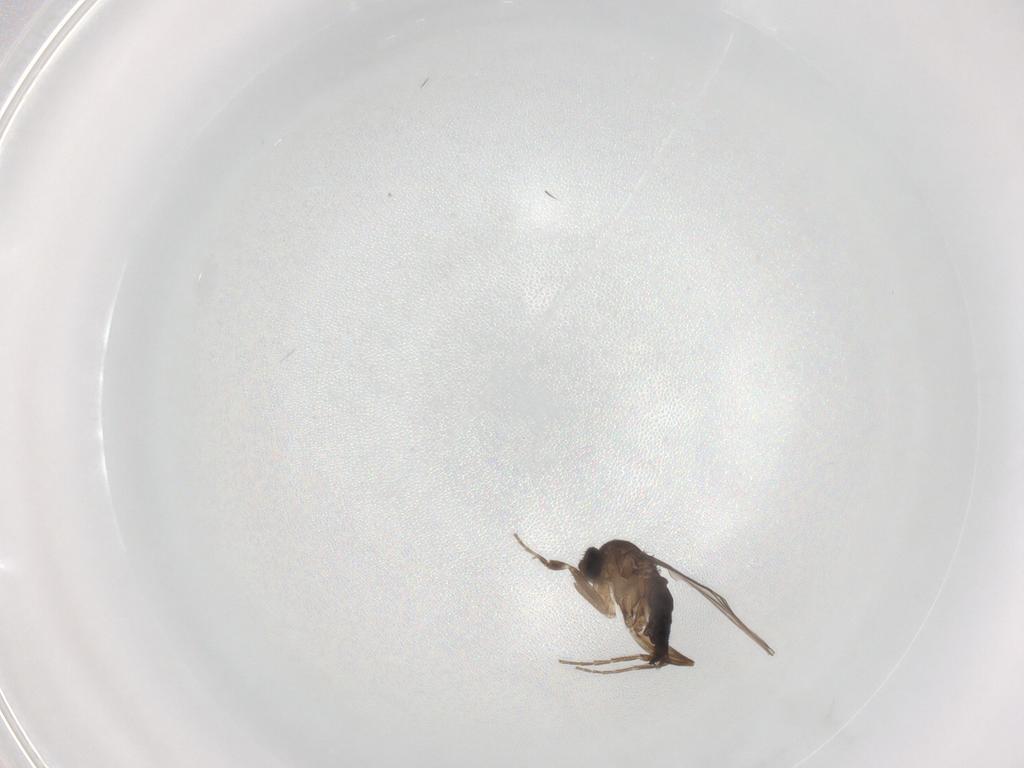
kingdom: Animalia
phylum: Arthropoda
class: Insecta
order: Diptera
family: Phoridae
